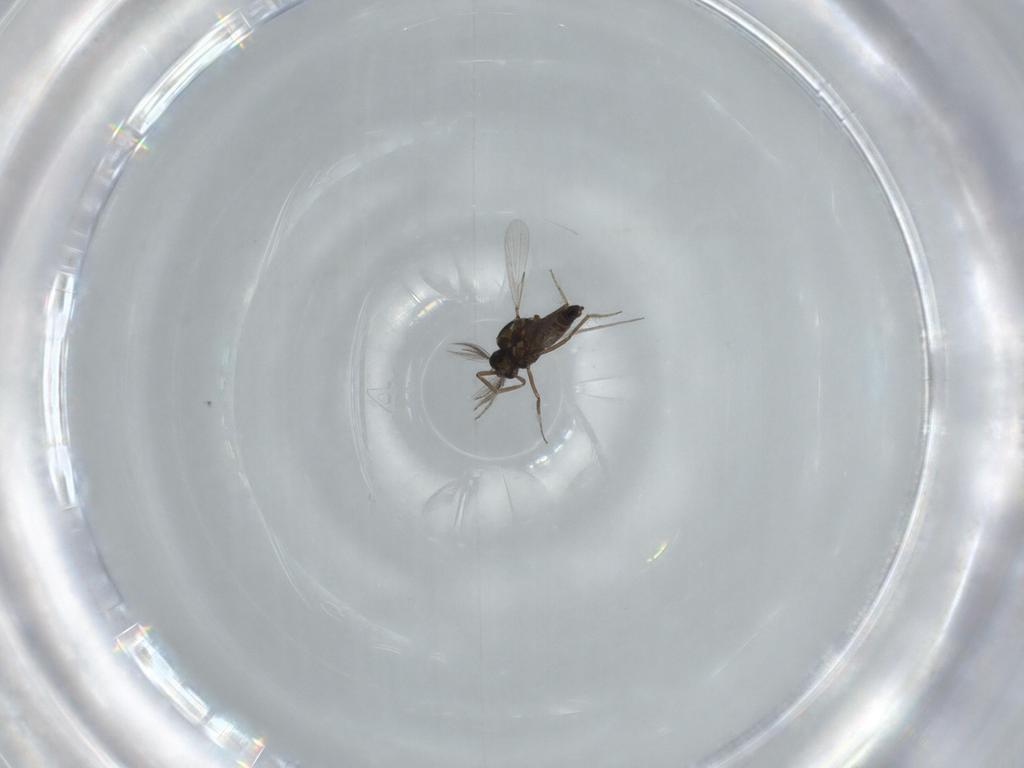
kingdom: Animalia
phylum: Arthropoda
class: Insecta
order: Diptera
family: Ceratopogonidae
